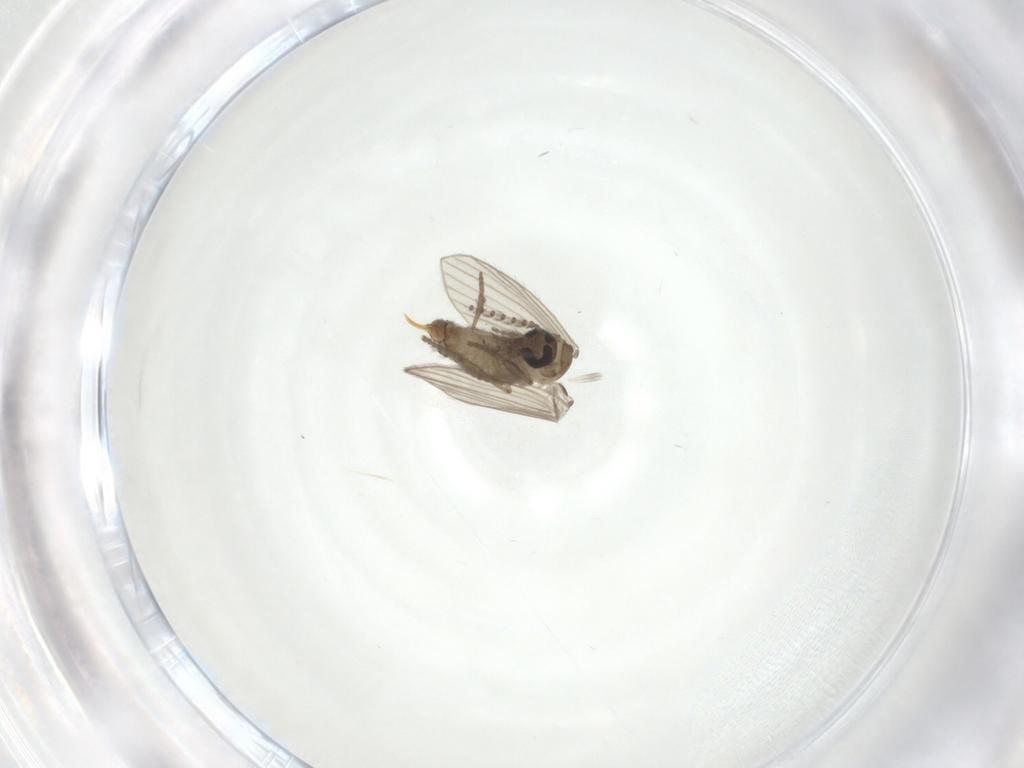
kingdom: Animalia
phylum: Arthropoda
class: Insecta
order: Diptera
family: Psychodidae
